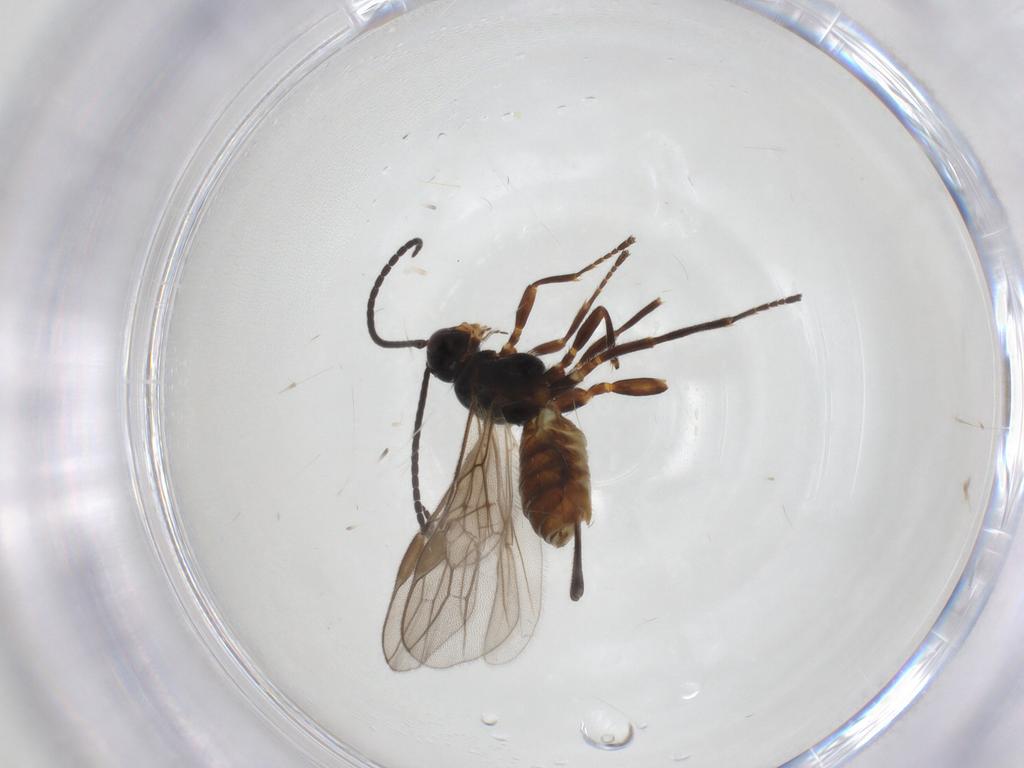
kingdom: Animalia
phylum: Arthropoda
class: Insecta
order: Hymenoptera
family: Braconidae
